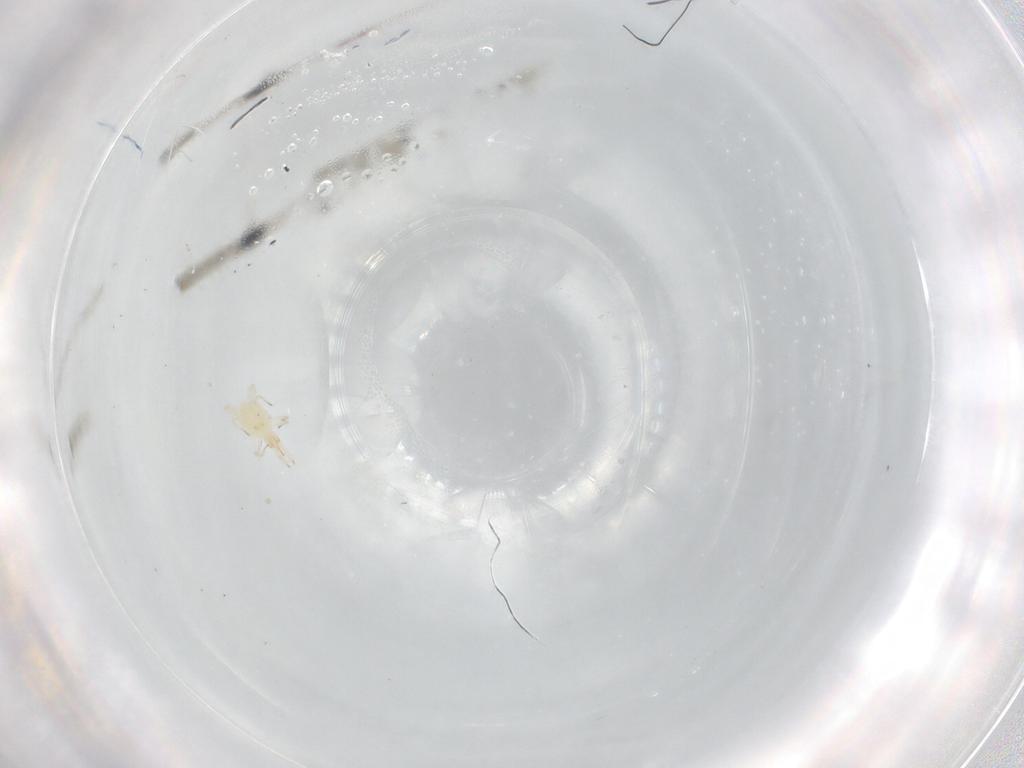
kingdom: Animalia
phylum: Arthropoda
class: Arachnida
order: Trombidiformes
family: Cunaxidae
